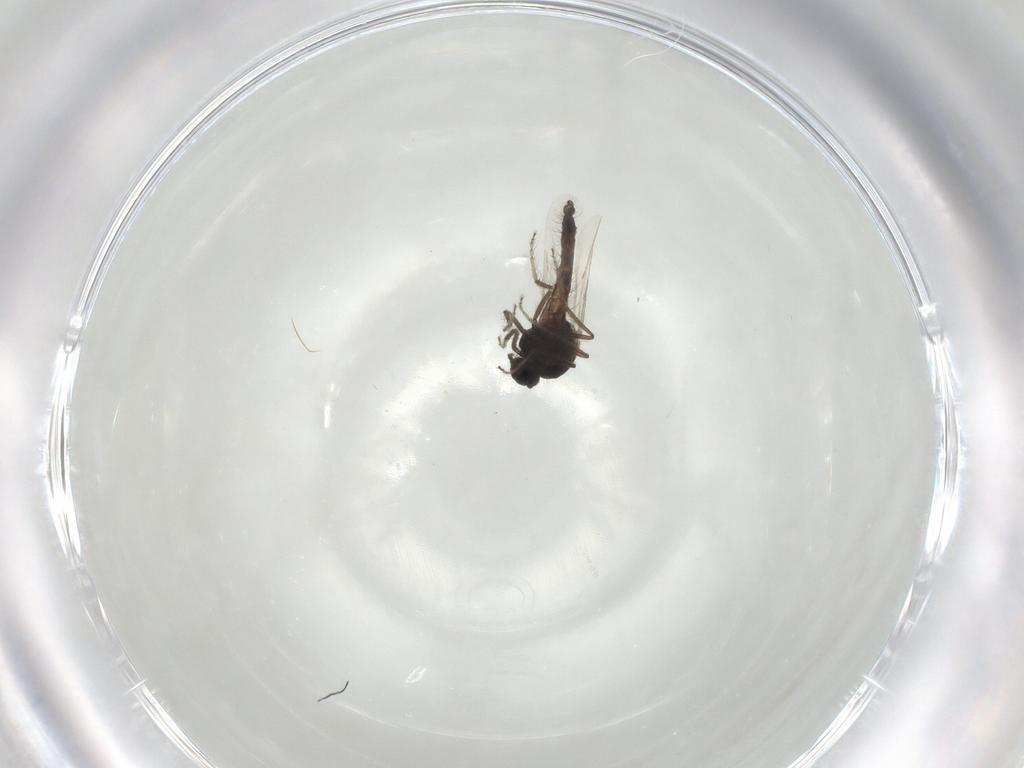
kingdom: Animalia
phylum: Arthropoda
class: Insecta
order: Diptera
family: Ceratopogonidae
